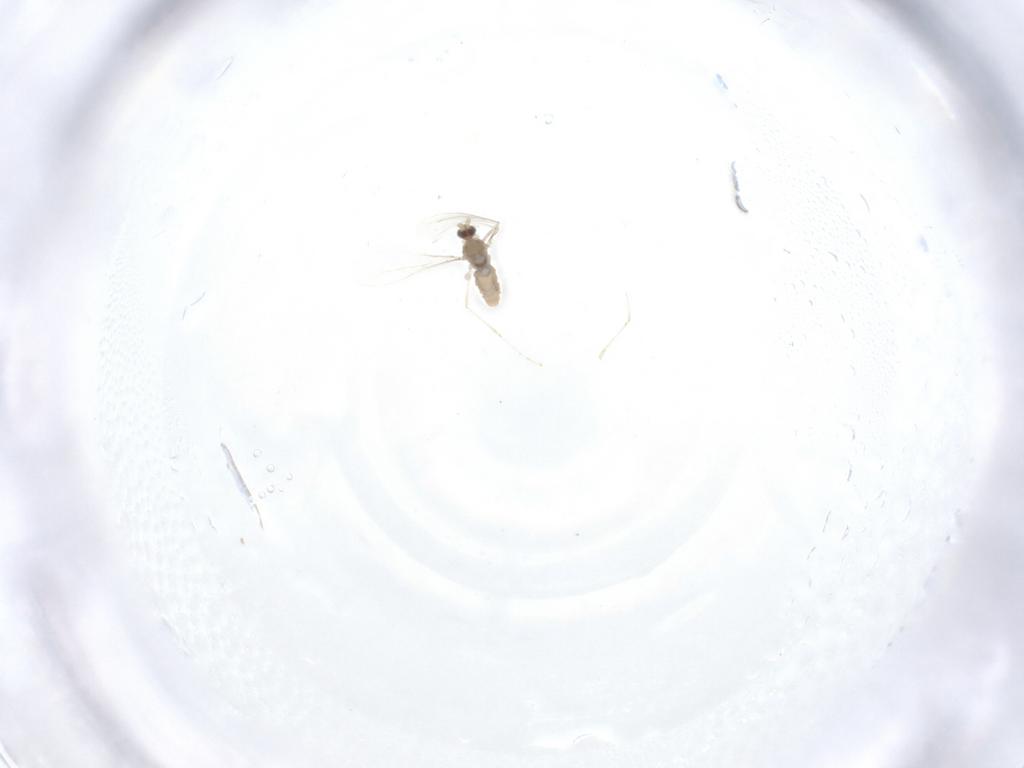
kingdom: Animalia
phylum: Arthropoda
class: Insecta
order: Diptera
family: Cecidomyiidae
